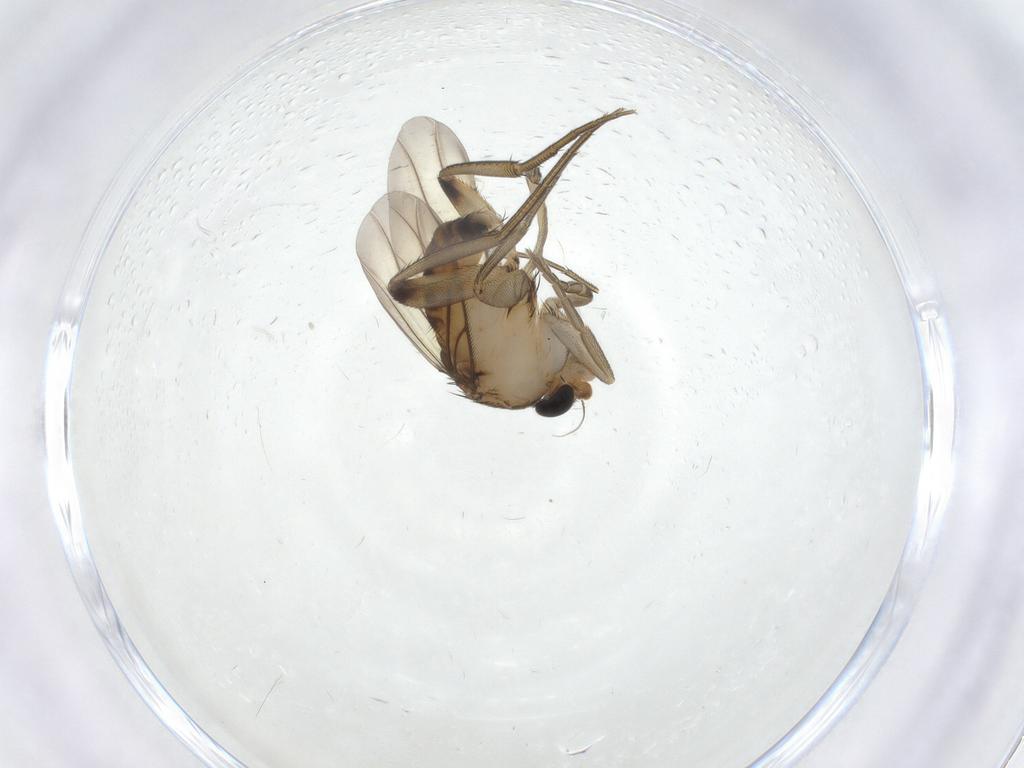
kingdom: Animalia
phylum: Arthropoda
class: Insecta
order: Diptera
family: Phoridae
